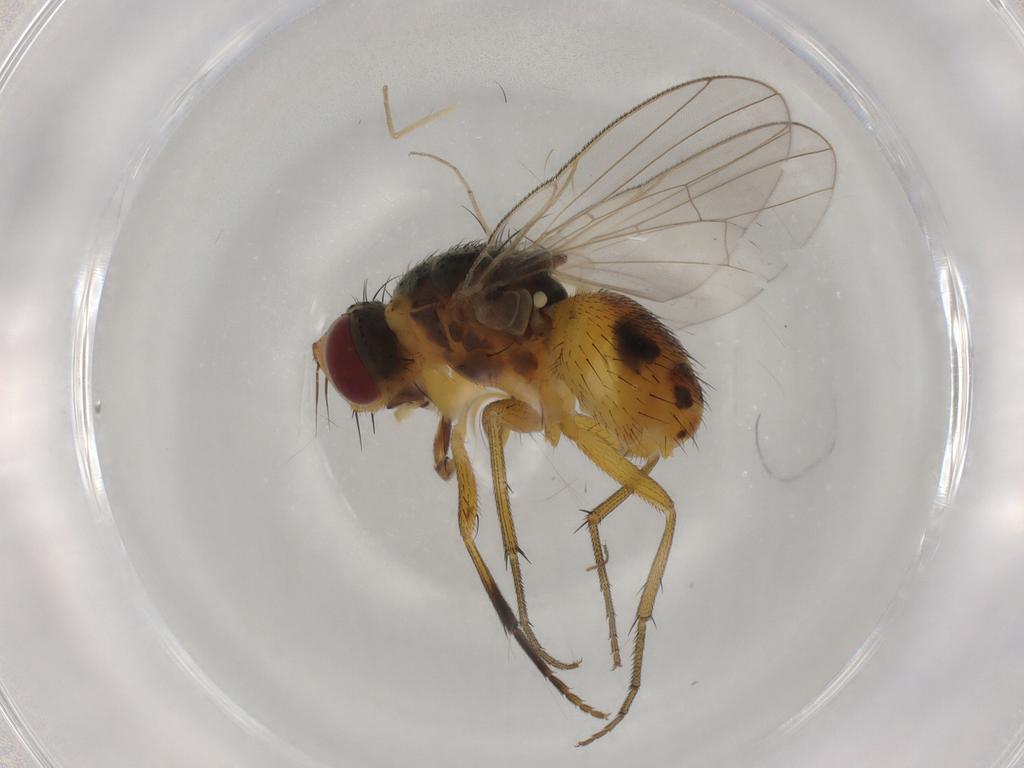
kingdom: Animalia
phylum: Arthropoda
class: Insecta
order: Diptera
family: Muscidae
